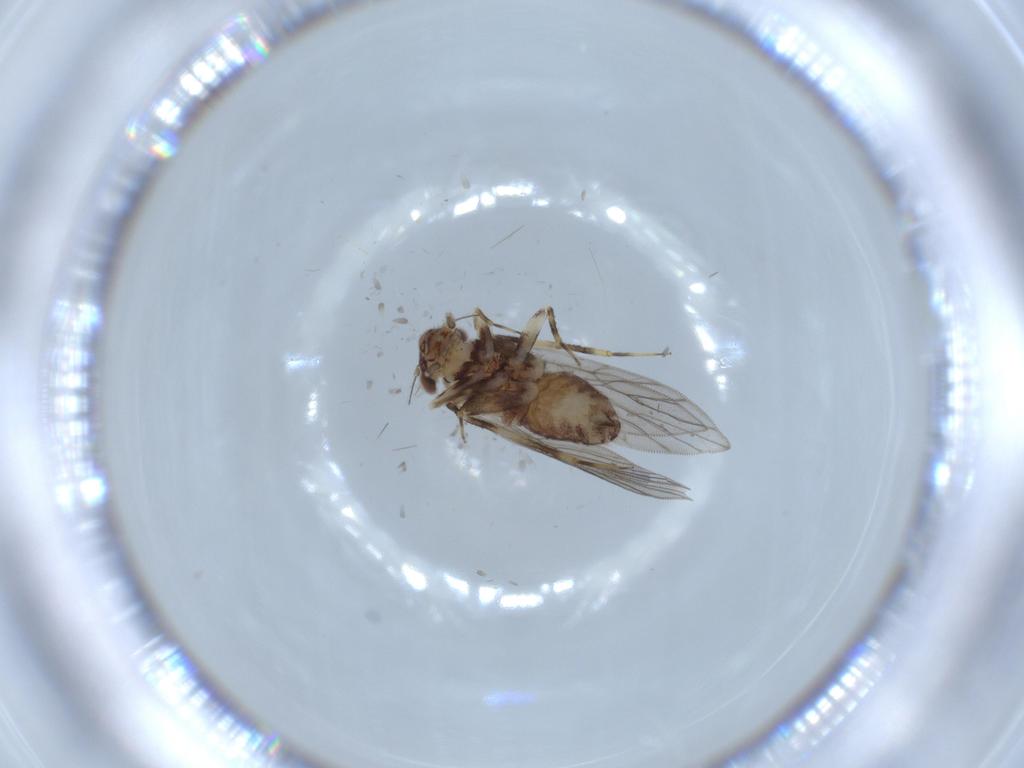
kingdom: Animalia
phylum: Arthropoda
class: Insecta
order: Psocodea
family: Lepidopsocidae
